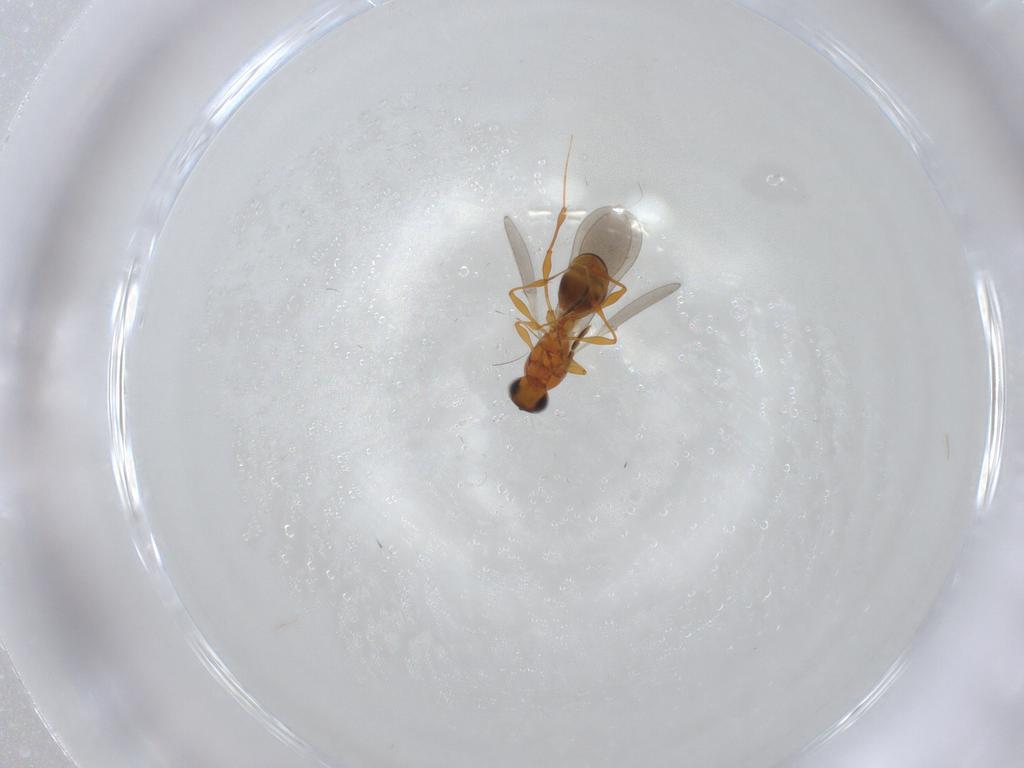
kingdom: Animalia
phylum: Arthropoda
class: Insecta
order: Hymenoptera
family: Platygastridae
